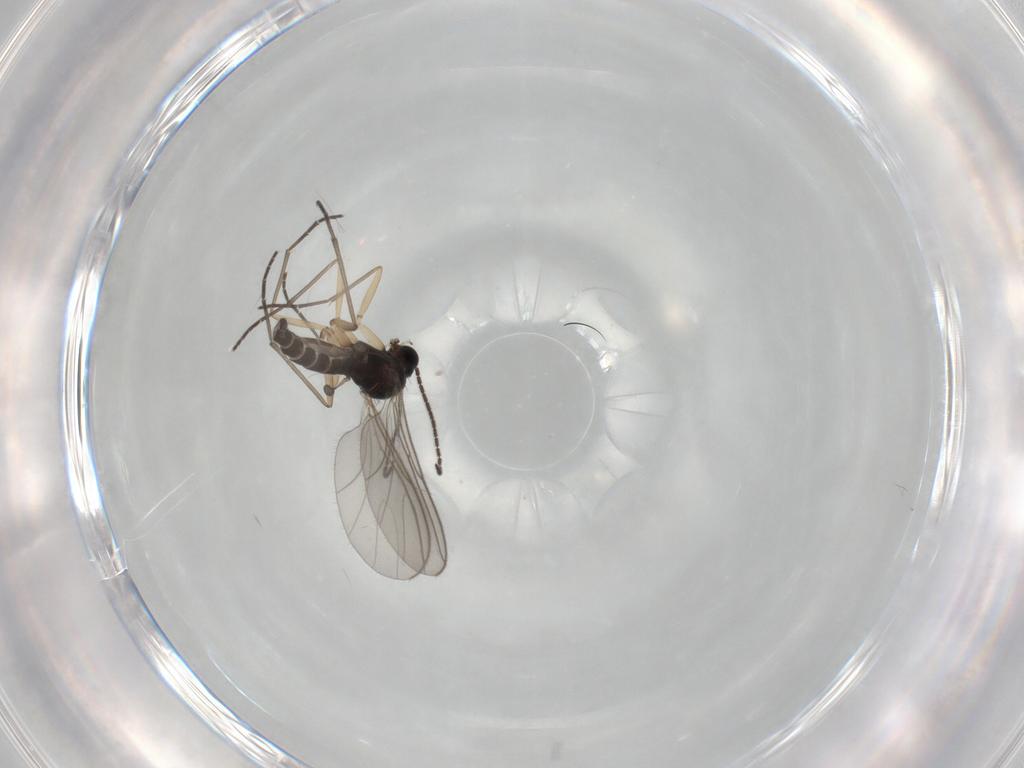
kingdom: Animalia
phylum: Arthropoda
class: Insecta
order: Diptera
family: Sciaridae
